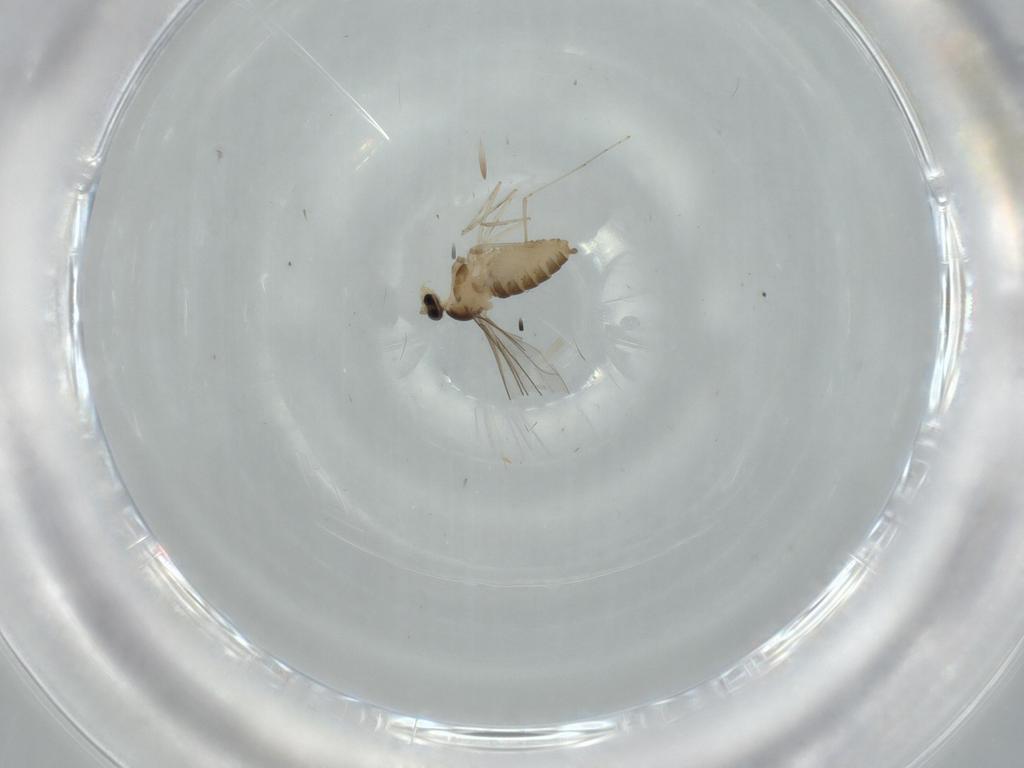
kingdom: Animalia
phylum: Arthropoda
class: Insecta
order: Diptera
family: Cecidomyiidae
